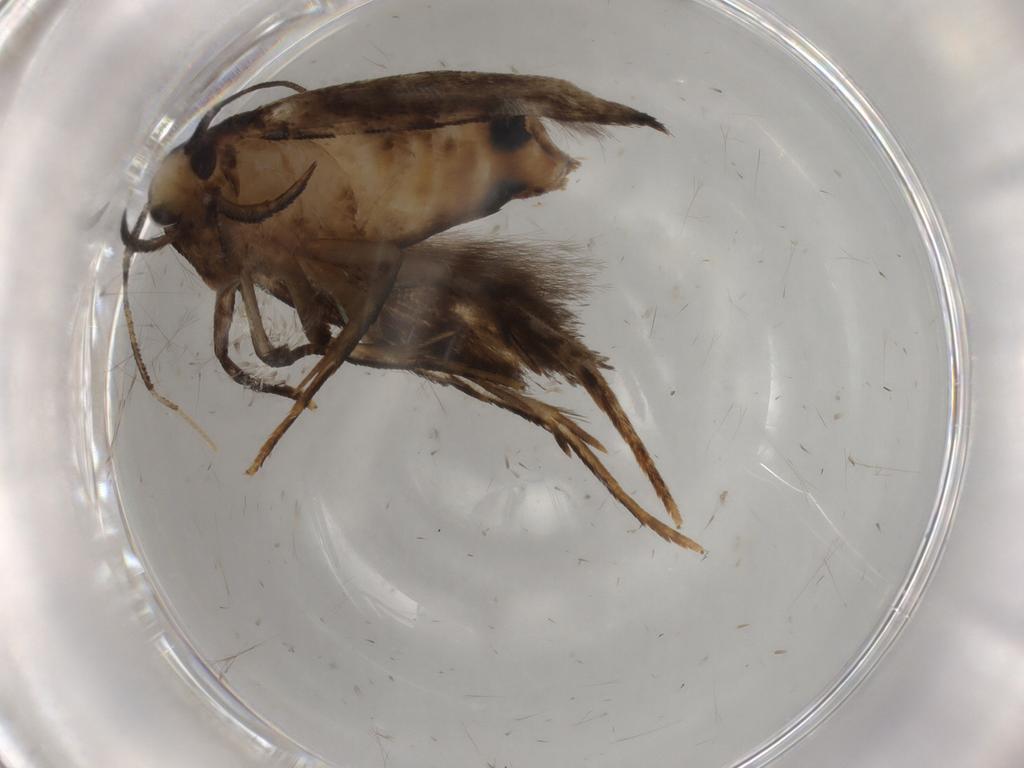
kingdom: Animalia
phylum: Arthropoda
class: Insecta
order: Lepidoptera
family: Gelechiidae
